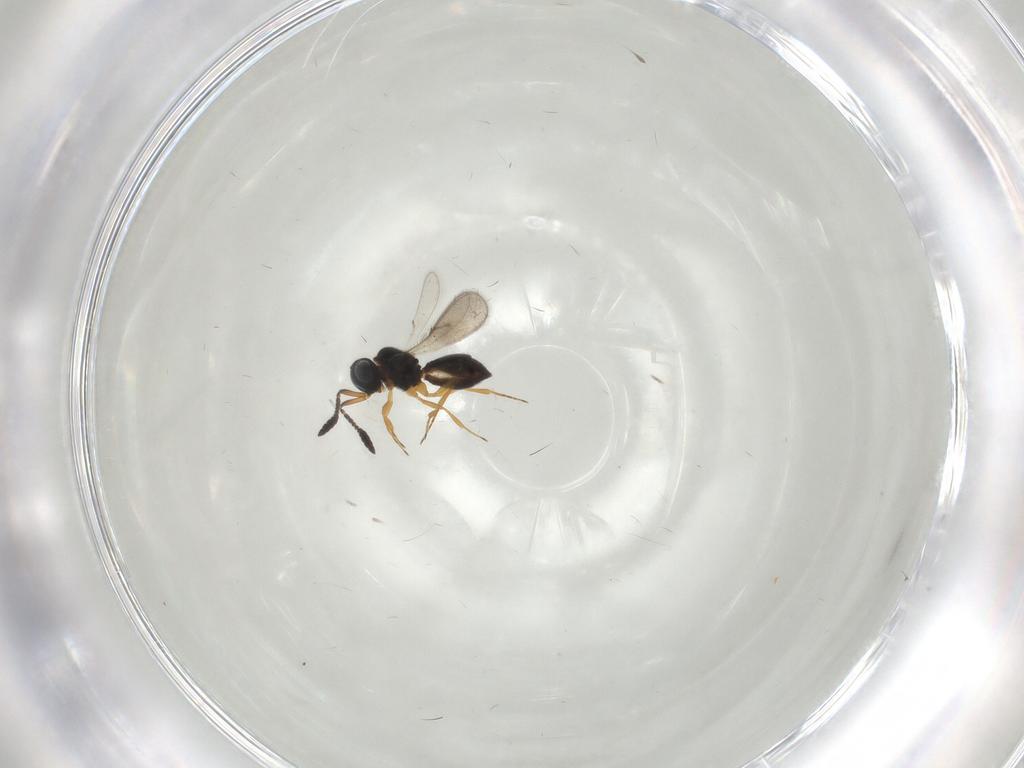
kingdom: Animalia
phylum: Arthropoda
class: Insecta
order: Hymenoptera
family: Scelionidae
